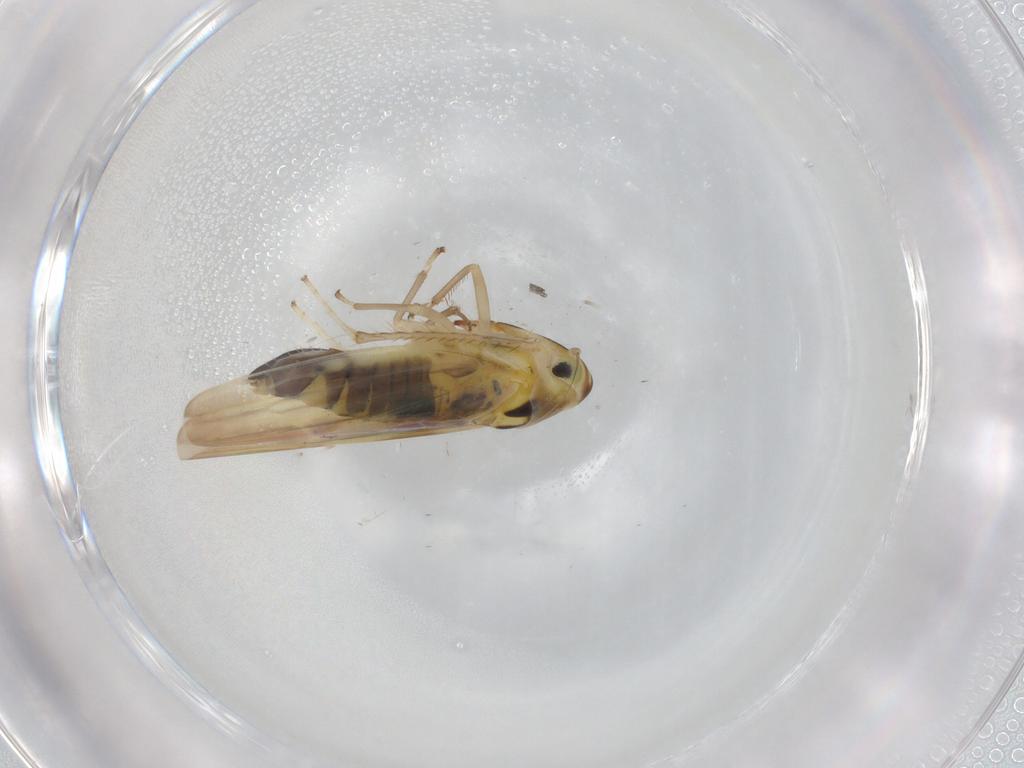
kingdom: Animalia
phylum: Arthropoda
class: Insecta
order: Hemiptera
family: Cicadellidae
